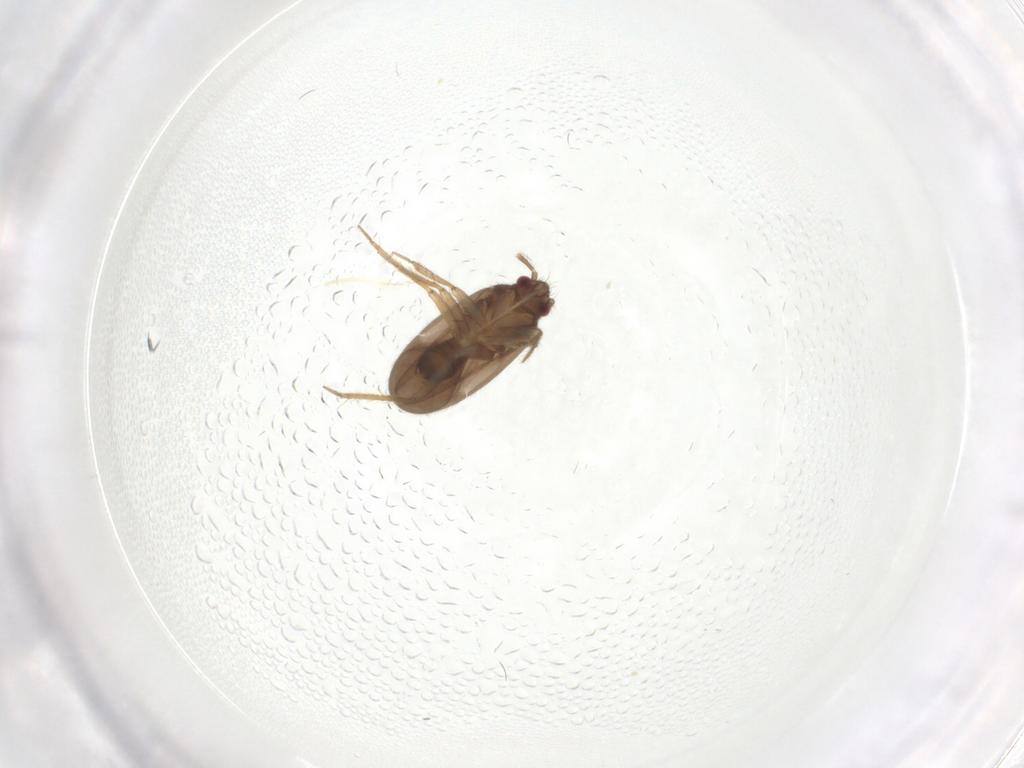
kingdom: Animalia
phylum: Arthropoda
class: Insecta
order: Hemiptera
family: Ceratocombidae
